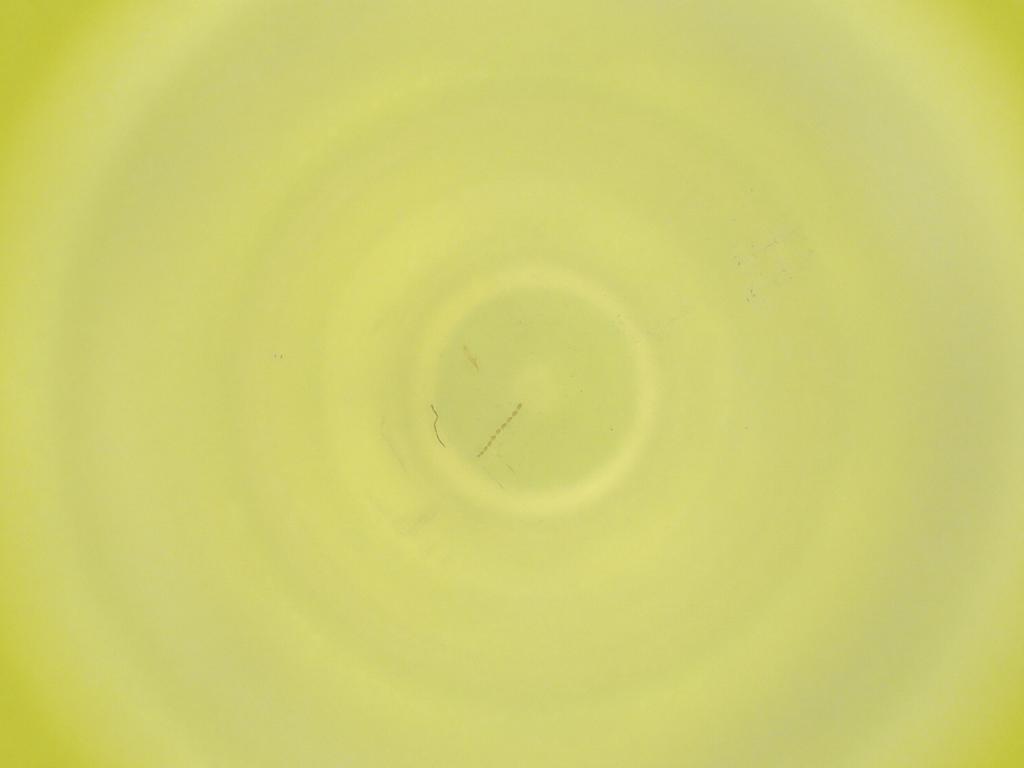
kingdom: Animalia
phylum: Arthropoda
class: Insecta
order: Diptera
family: Cecidomyiidae
